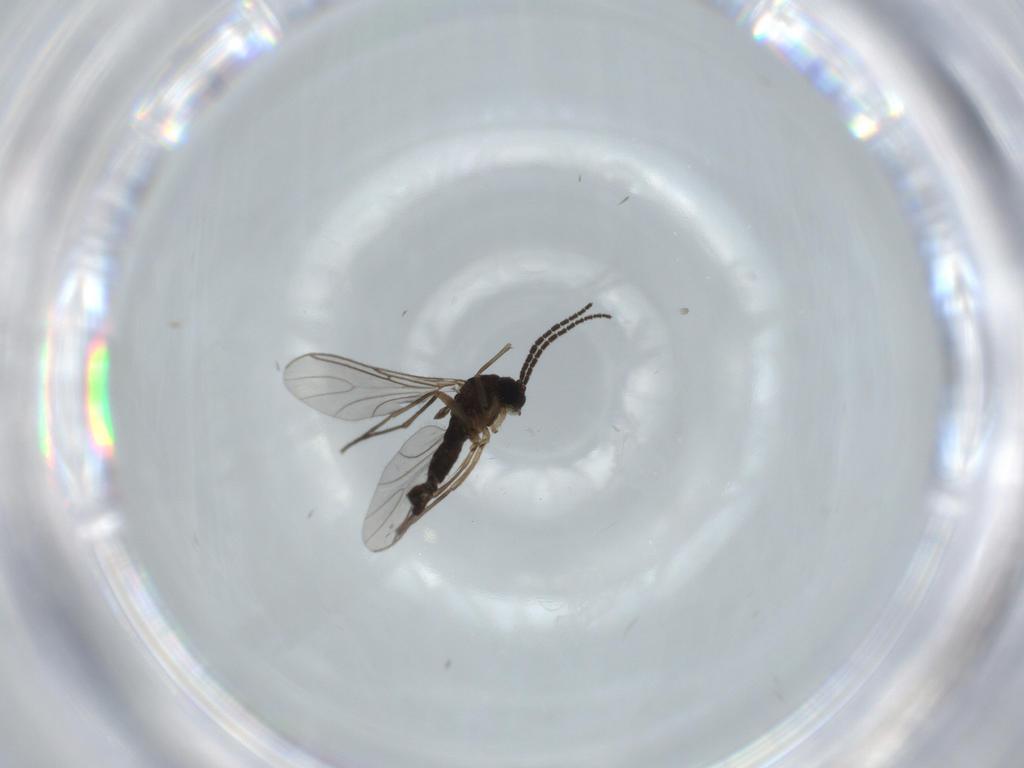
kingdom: Animalia
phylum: Arthropoda
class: Insecta
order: Diptera
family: Sciaridae
